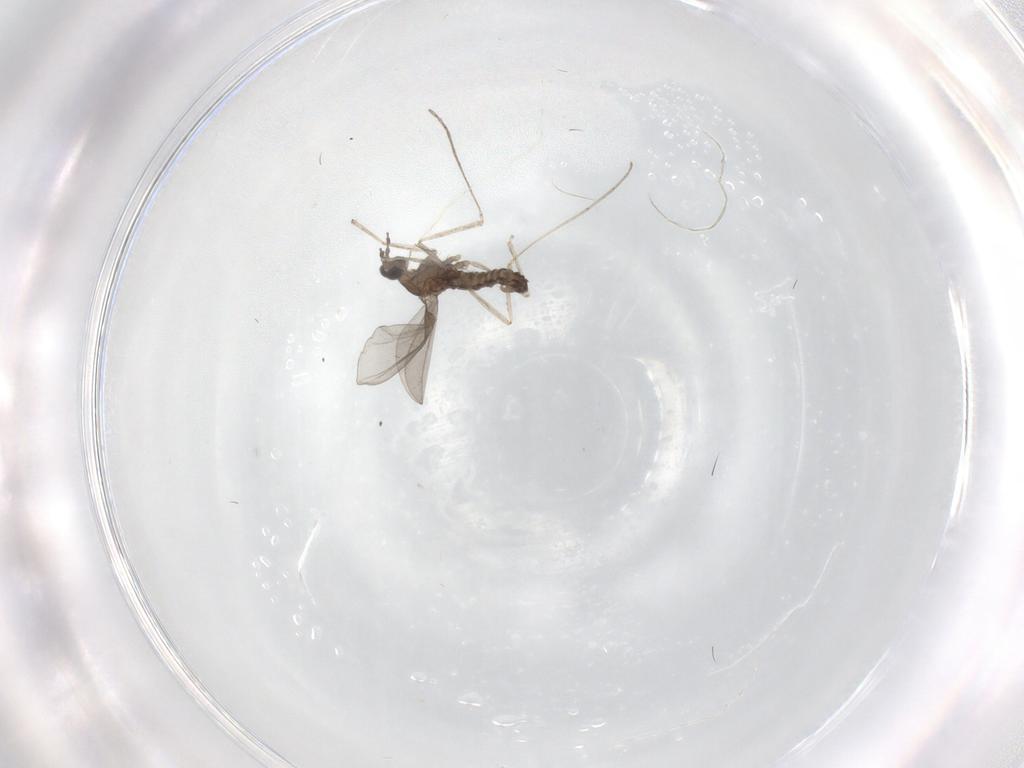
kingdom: Animalia
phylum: Arthropoda
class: Insecta
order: Diptera
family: Cecidomyiidae
